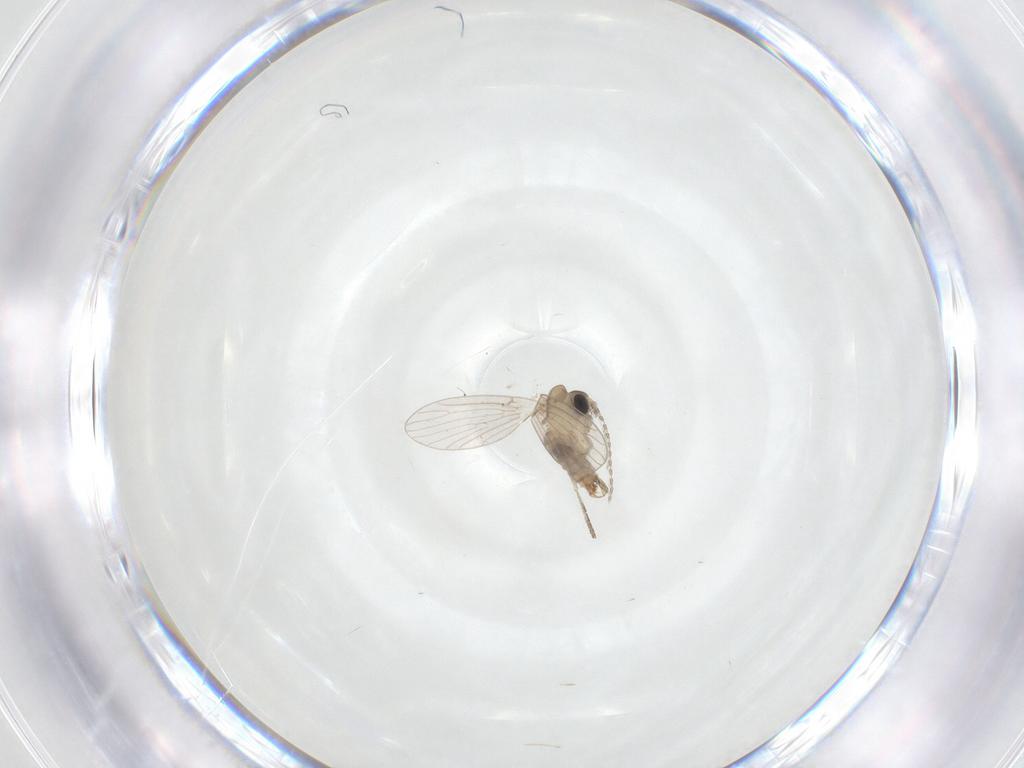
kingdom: Animalia
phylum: Arthropoda
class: Insecta
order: Diptera
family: Psychodidae
